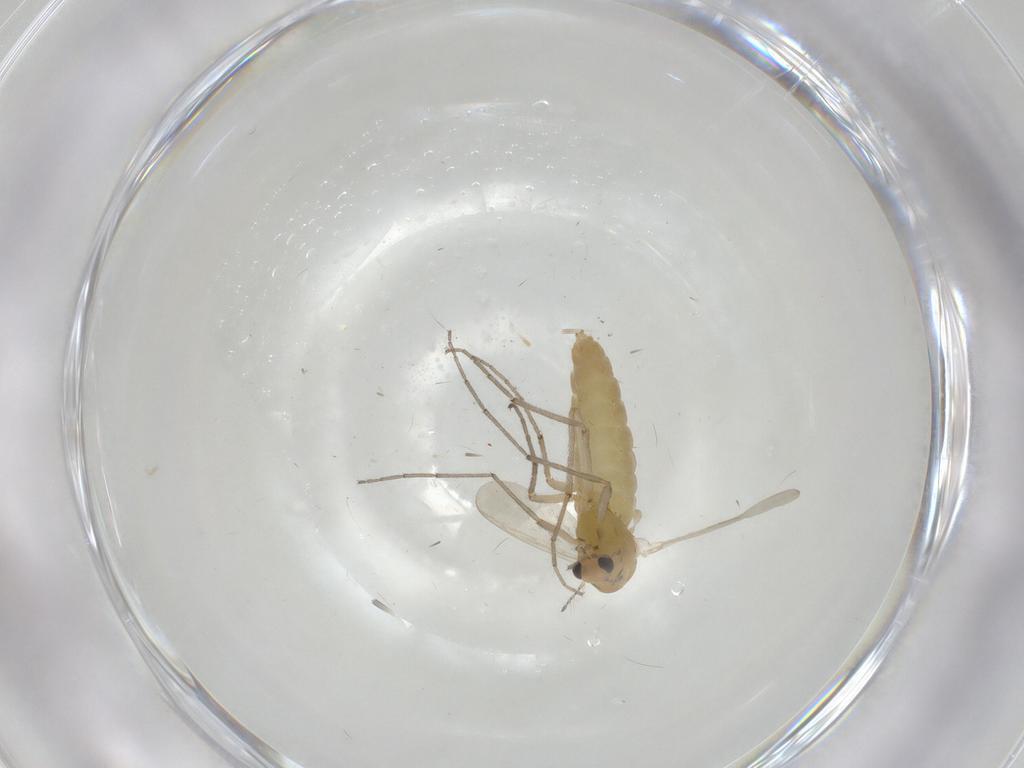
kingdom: Animalia
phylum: Arthropoda
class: Insecta
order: Diptera
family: Chironomidae
